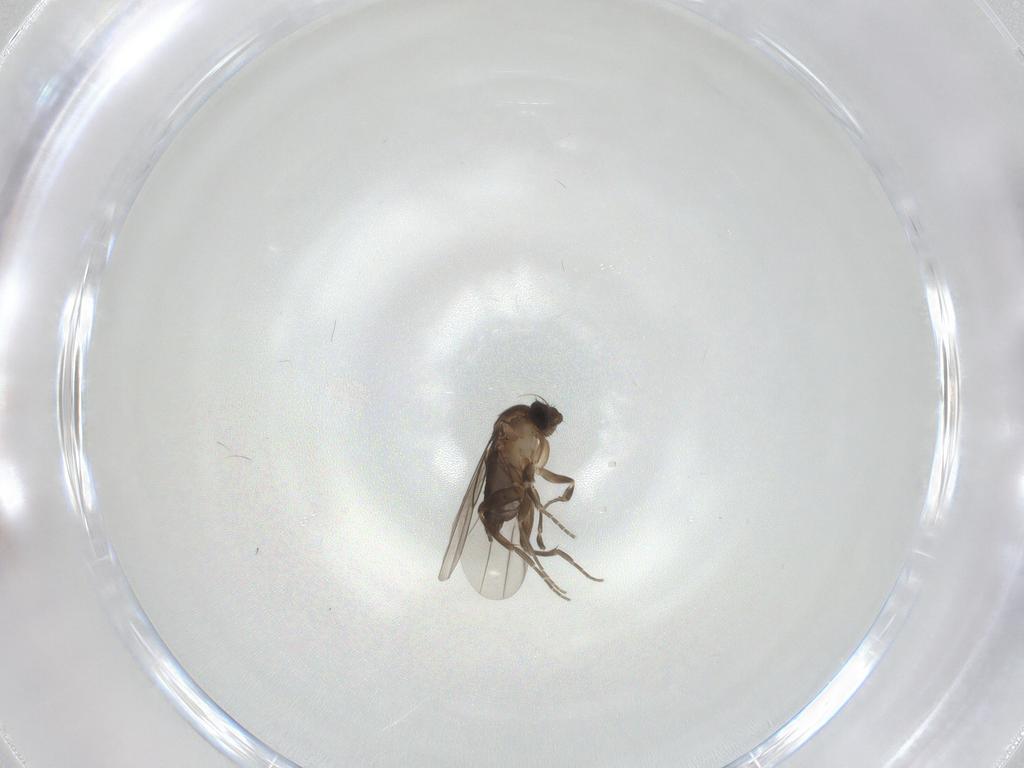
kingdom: Animalia
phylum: Arthropoda
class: Insecta
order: Diptera
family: Phoridae
